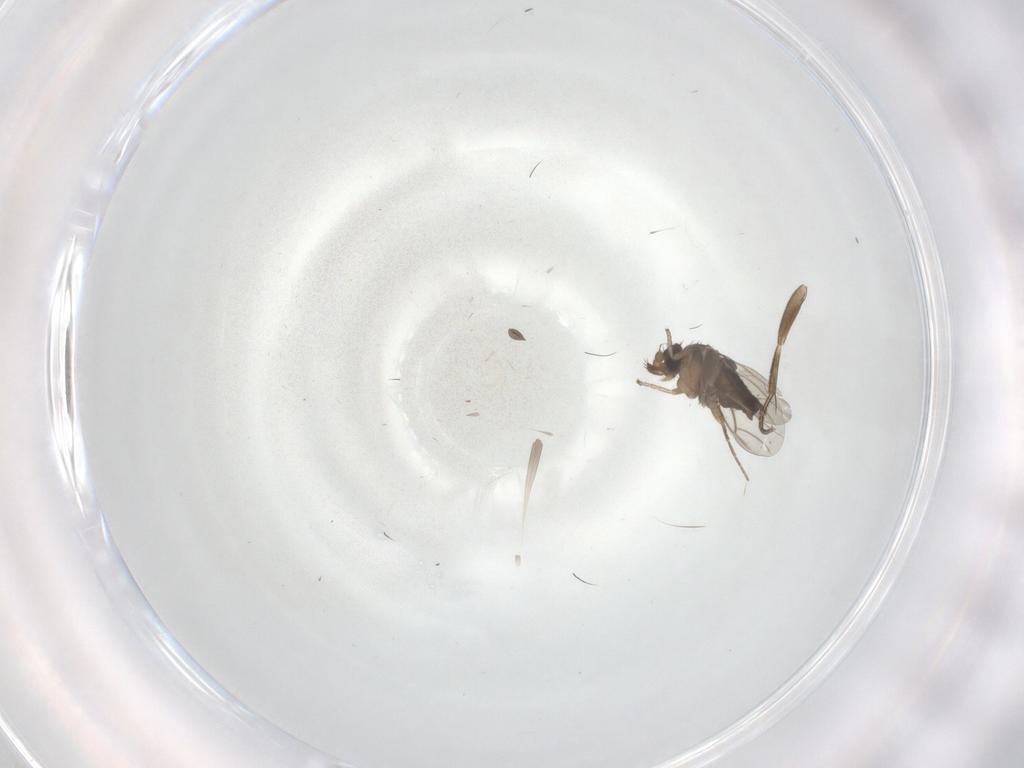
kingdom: Animalia
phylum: Arthropoda
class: Insecta
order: Diptera
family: Phoridae
